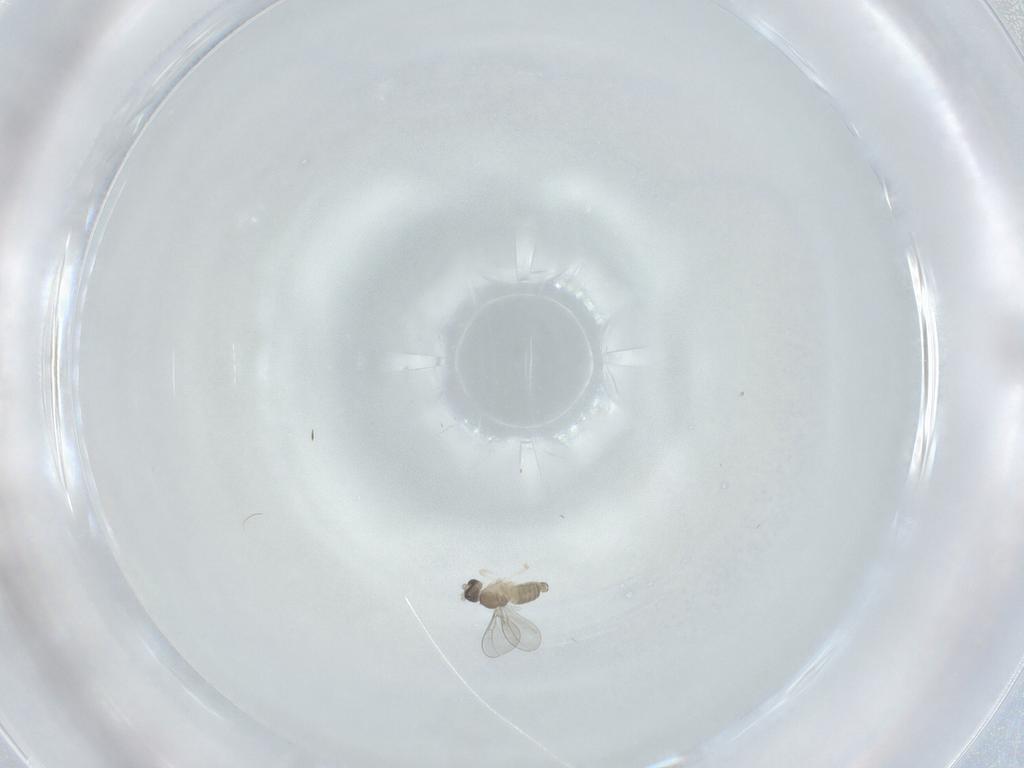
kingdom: Animalia
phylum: Arthropoda
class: Insecta
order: Diptera
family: Cecidomyiidae
